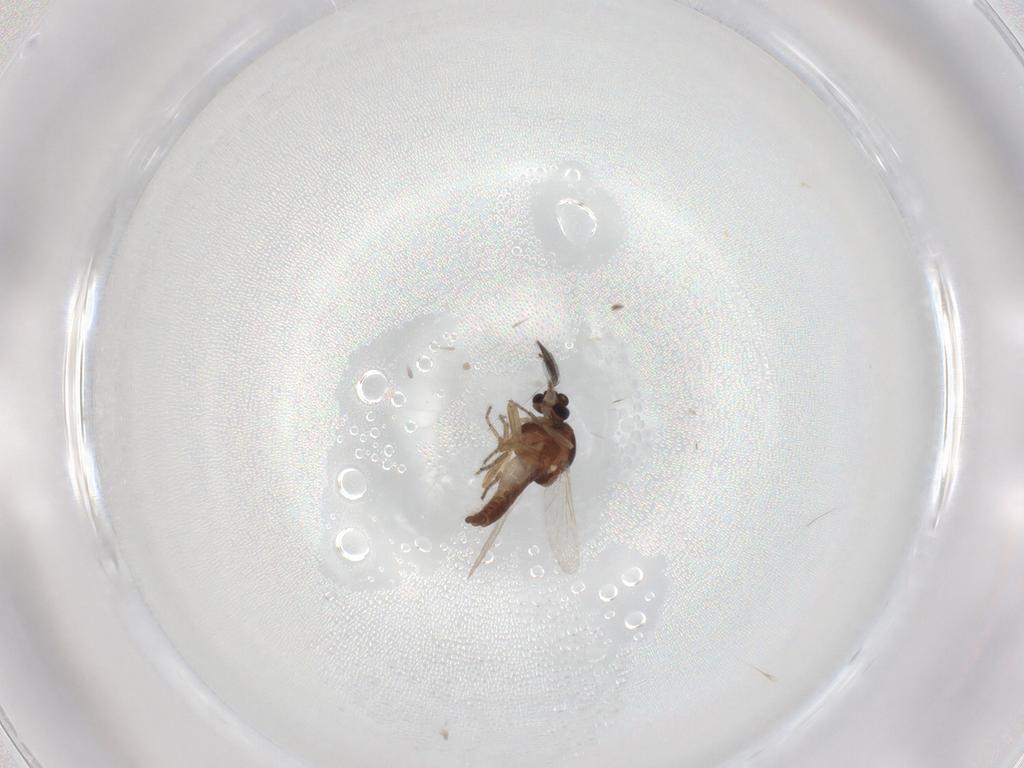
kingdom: Animalia
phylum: Arthropoda
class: Insecta
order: Diptera
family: Ceratopogonidae
